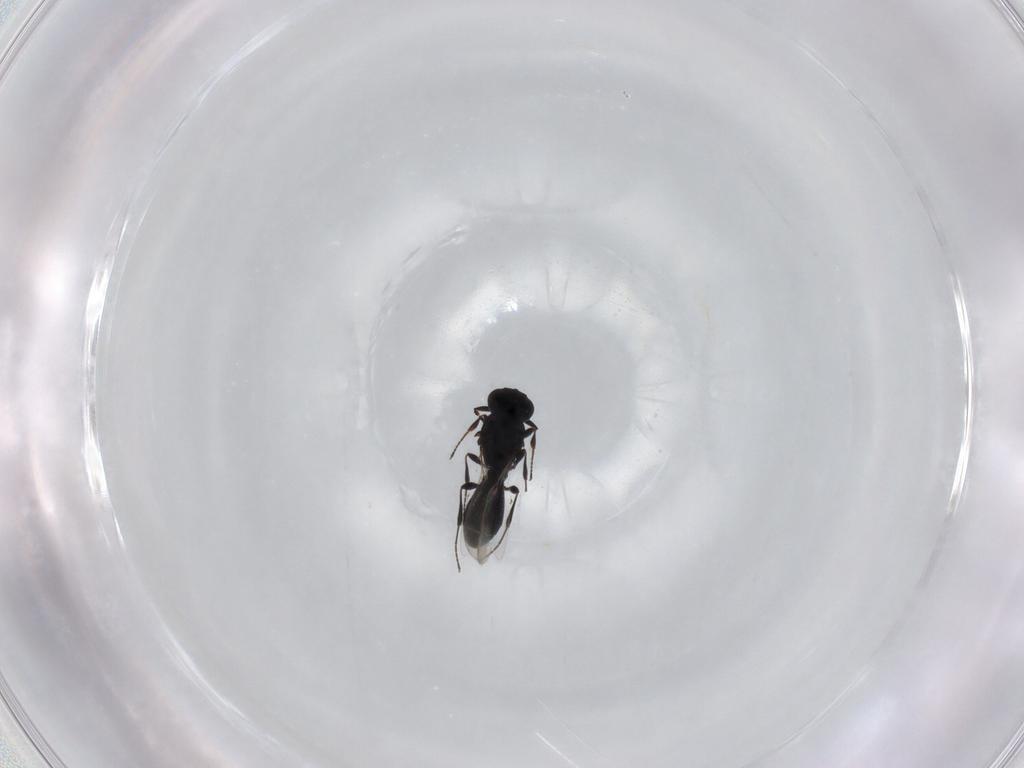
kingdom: Animalia
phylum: Arthropoda
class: Insecta
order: Hymenoptera
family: Platygastridae
